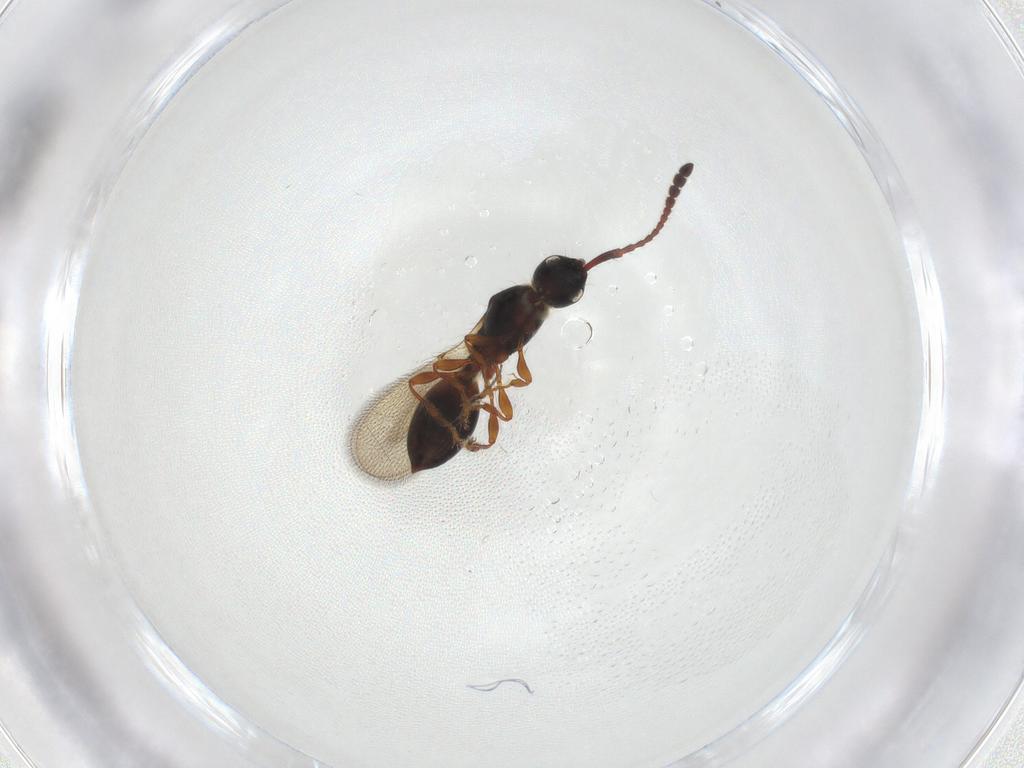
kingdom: Animalia
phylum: Arthropoda
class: Insecta
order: Hymenoptera
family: Diapriidae
